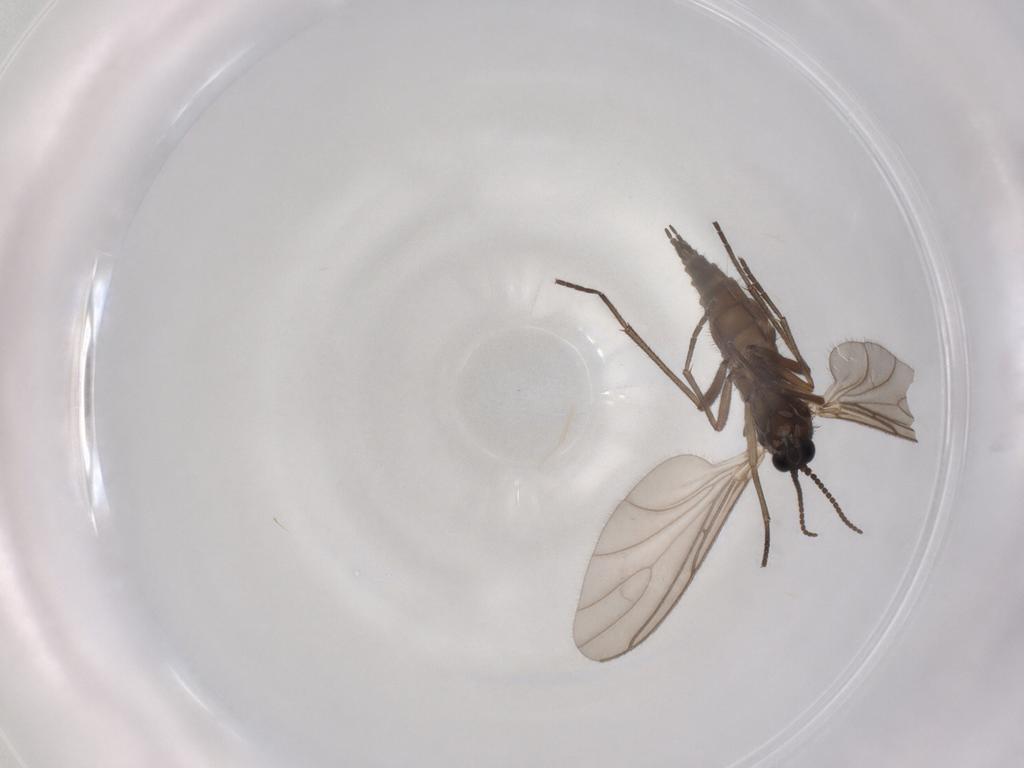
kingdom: Animalia
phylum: Arthropoda
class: Insecta
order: Diptera
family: Sciaridae
